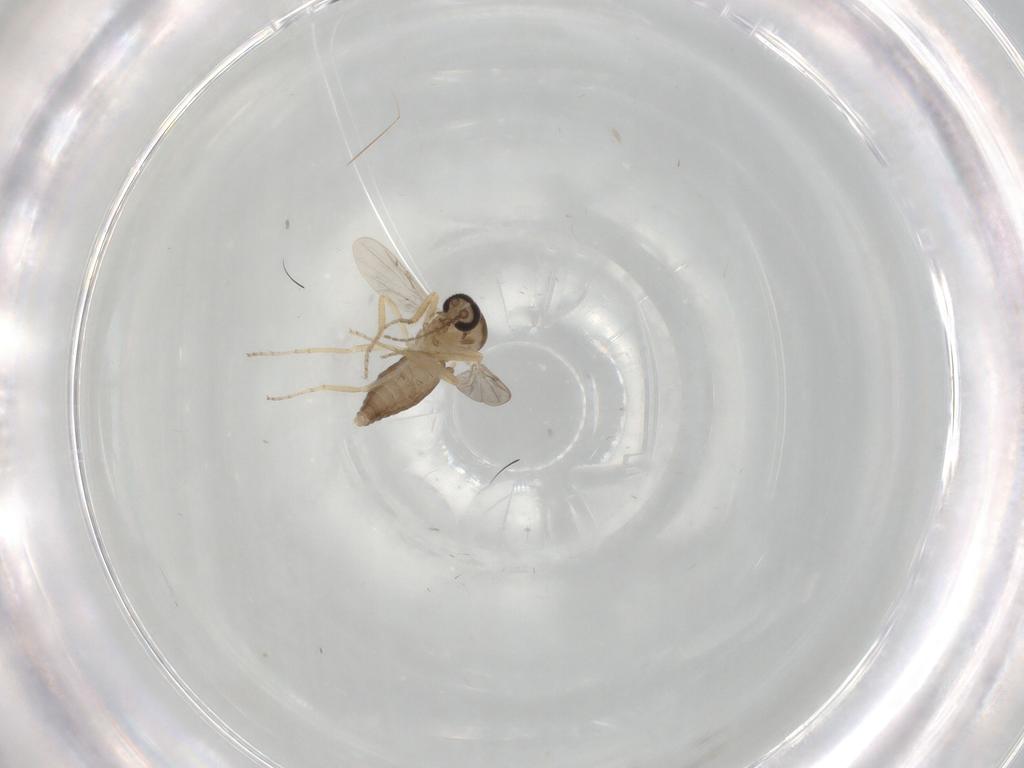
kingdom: Animalia
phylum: Arthropoda
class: Insecta
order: Diptera
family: Ceratopogonidae
